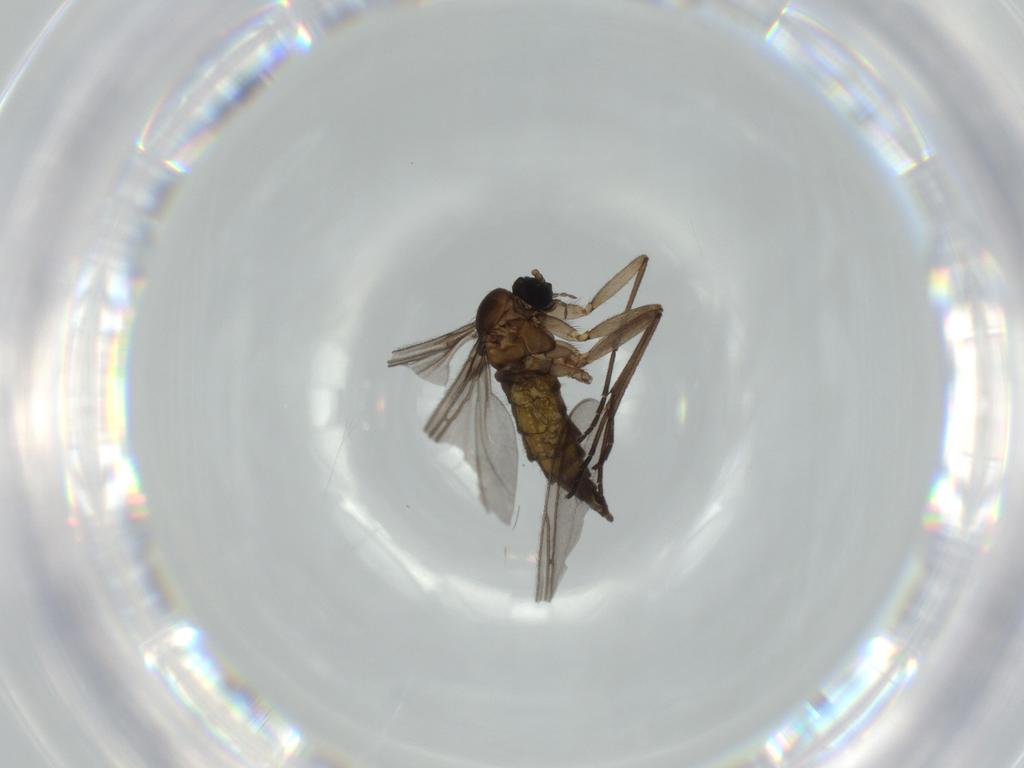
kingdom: Animalia
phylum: Arthropoda
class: Insecta
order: Diptera
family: Sciaridae
